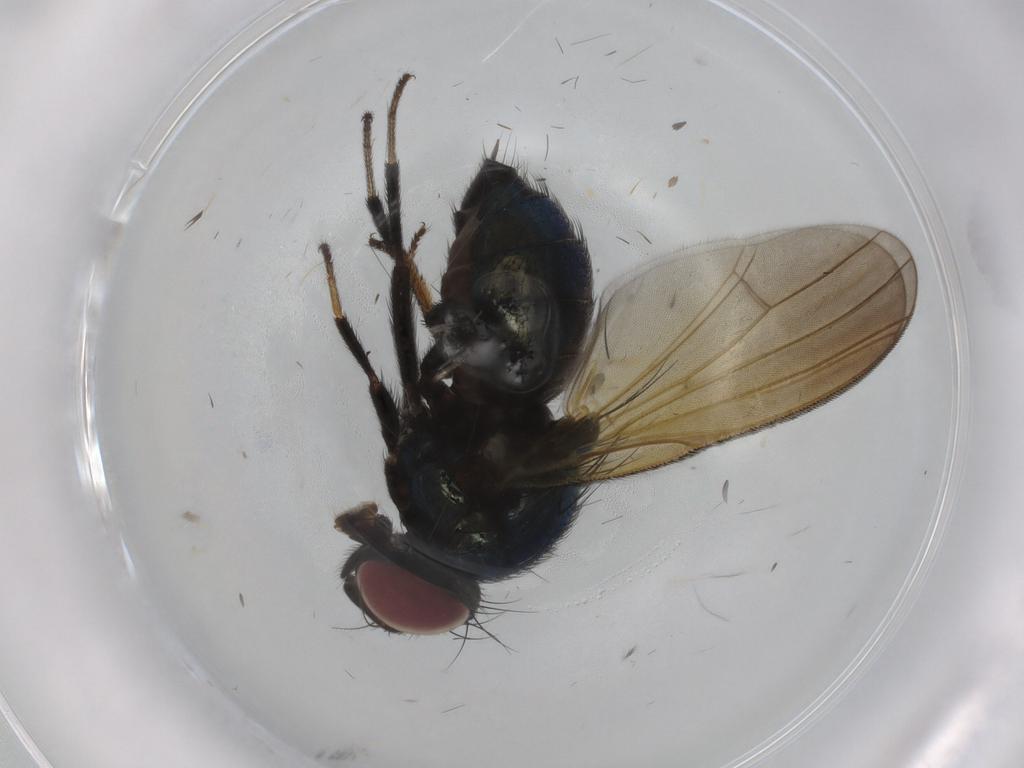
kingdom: Animalia
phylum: Arthropoda
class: Insecta
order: Diptera
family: Lonchaeidae
